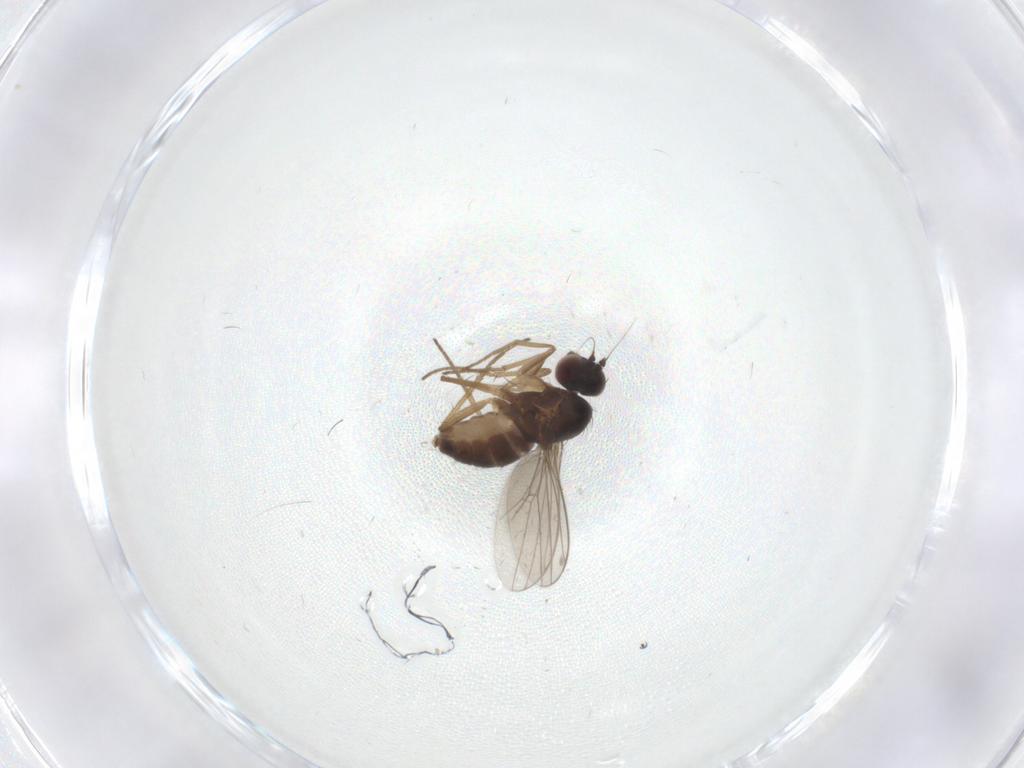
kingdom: Animalia
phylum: Arthropoda
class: Insecta
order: Diptera
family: Dolichopodidae
